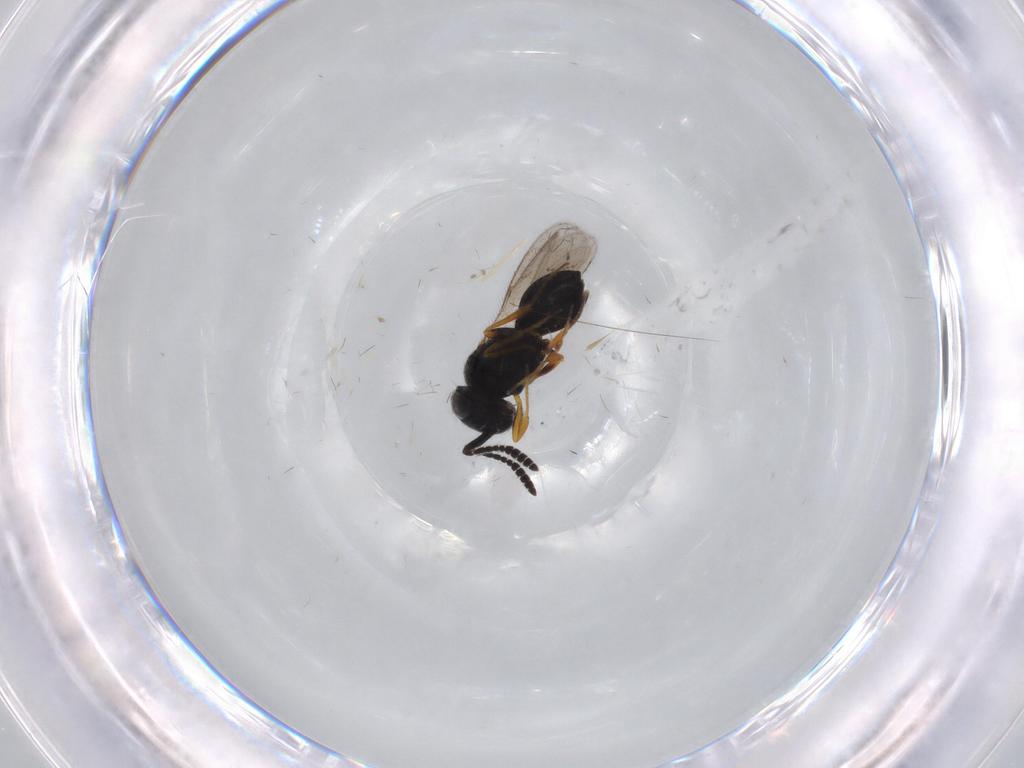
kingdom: Animalia
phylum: Arthropoda
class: Insecta
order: Hymenoptera
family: Scelionidae
